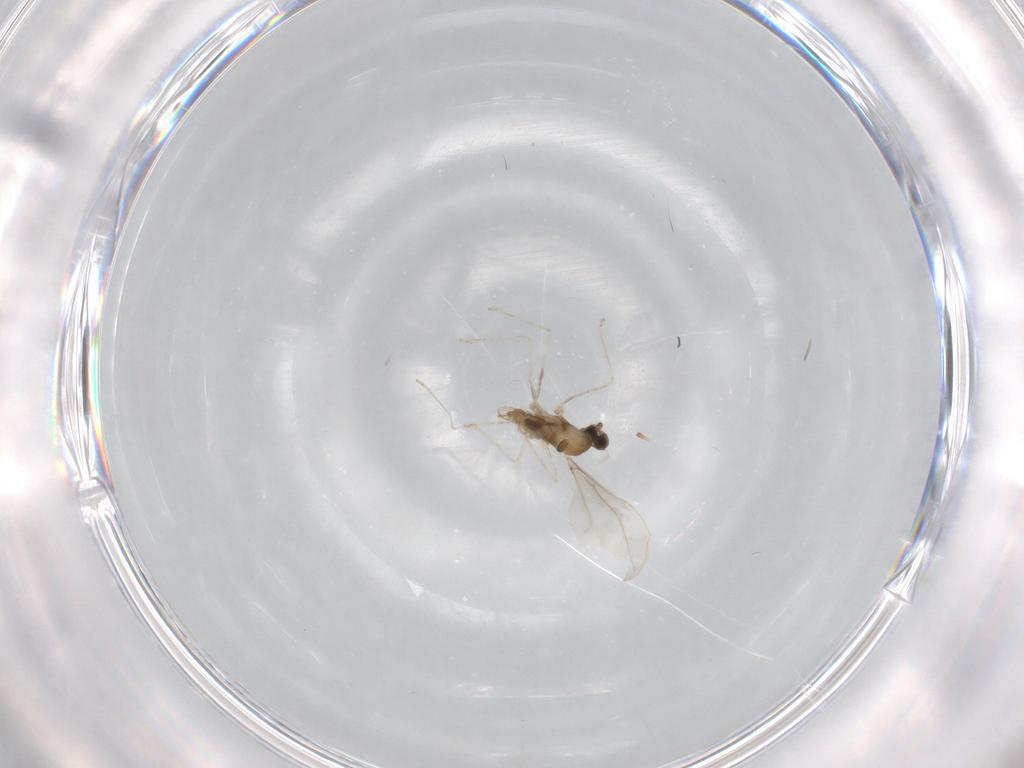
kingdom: Animalia
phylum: Arthropoda
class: Insecta
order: Diptera
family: Cecidomyiidae
